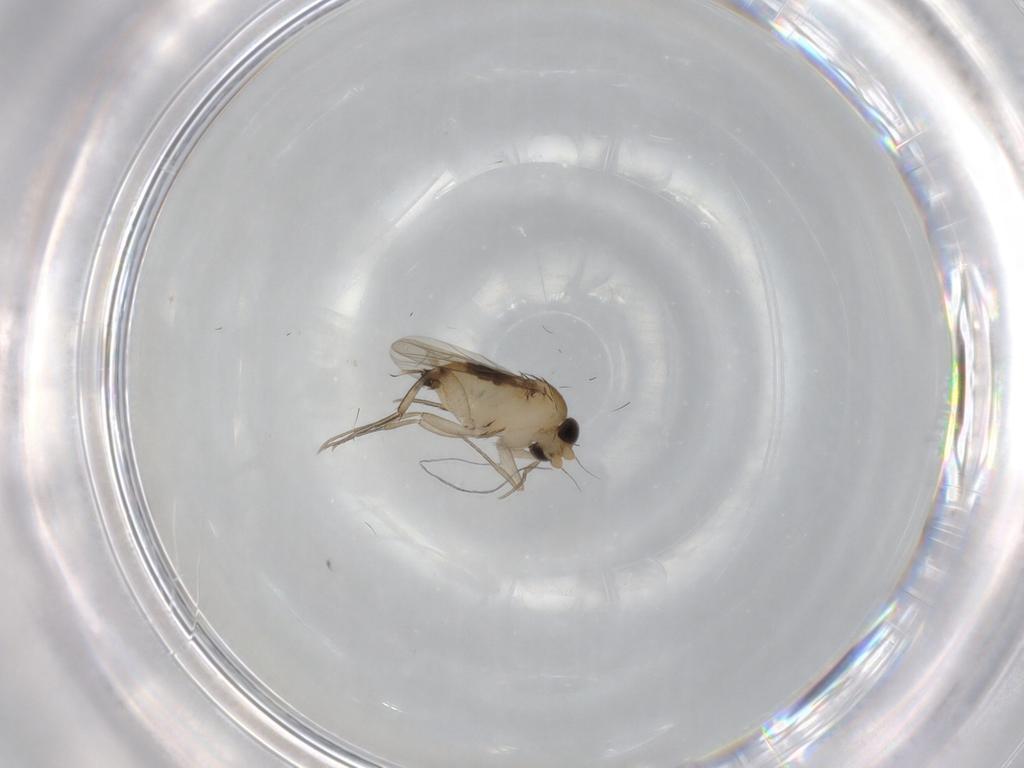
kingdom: Animalia
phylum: Arthropoda
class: Insecta
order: Diptera
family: Phoridae
